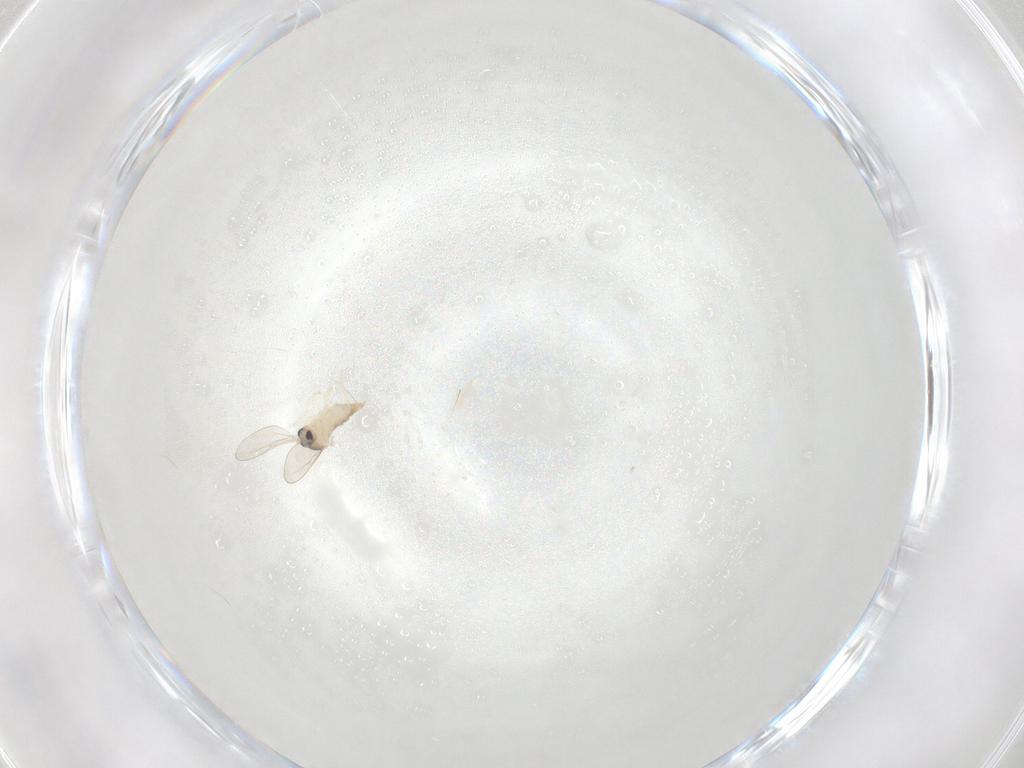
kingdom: Animalia
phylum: Arthropoda
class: Insecta
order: Diptera
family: Cecidomyiidae
